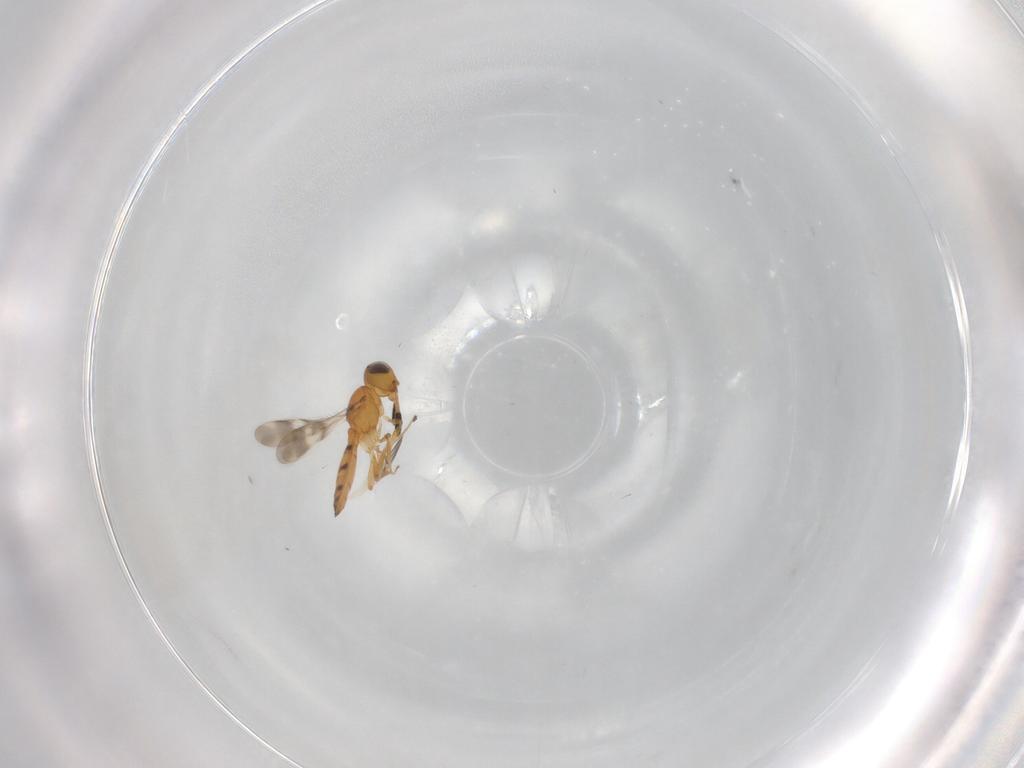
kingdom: Animalia
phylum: Arthropoda
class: Insecta
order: Hymenoptera
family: Scelionidae
